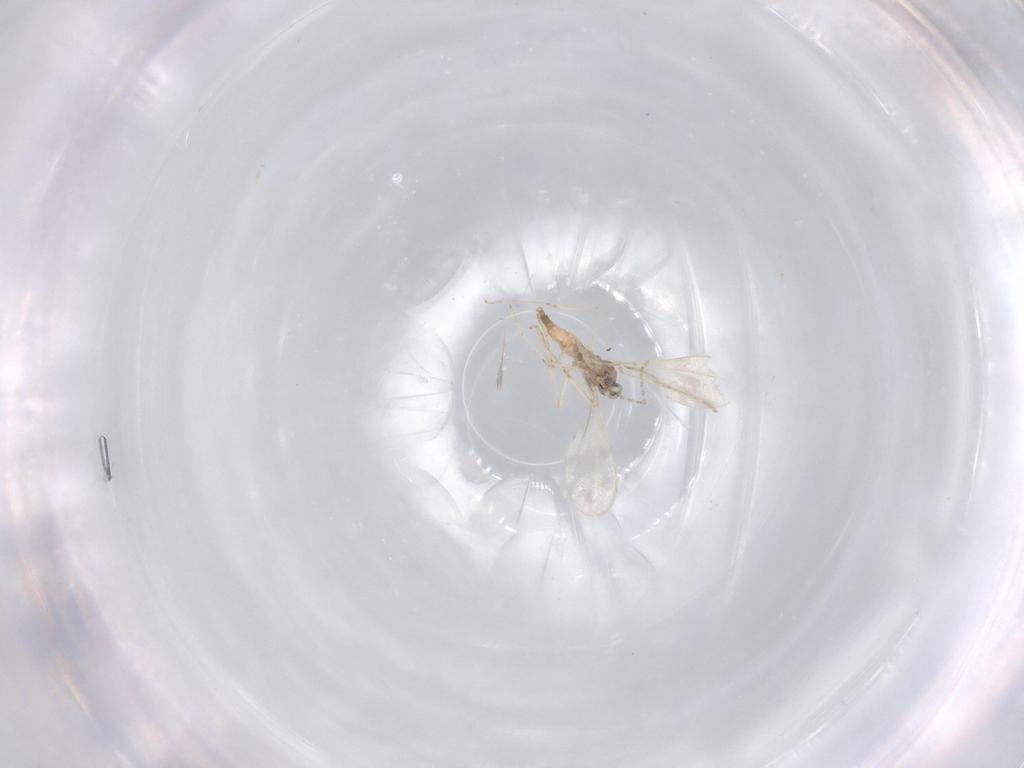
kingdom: Animalia
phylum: Arthropoda
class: Insecta
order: Diptera
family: Cecidomyiidae
